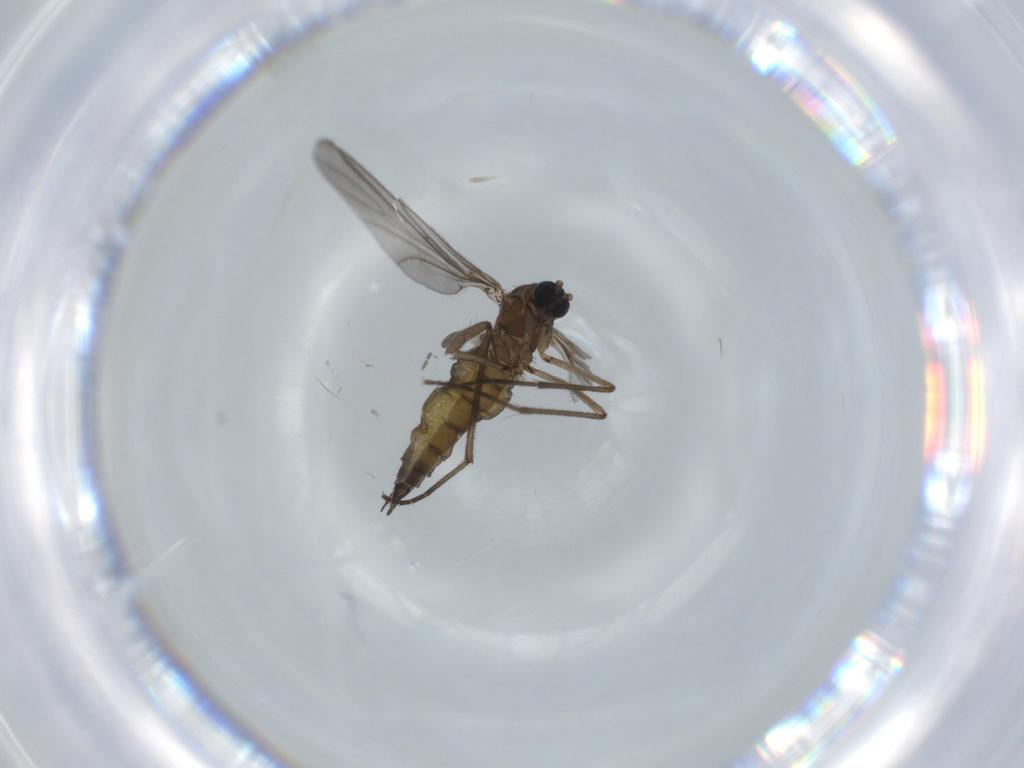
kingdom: Animalia
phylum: Arthropoda
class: Insecta
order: Diptera
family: Sciaridae
